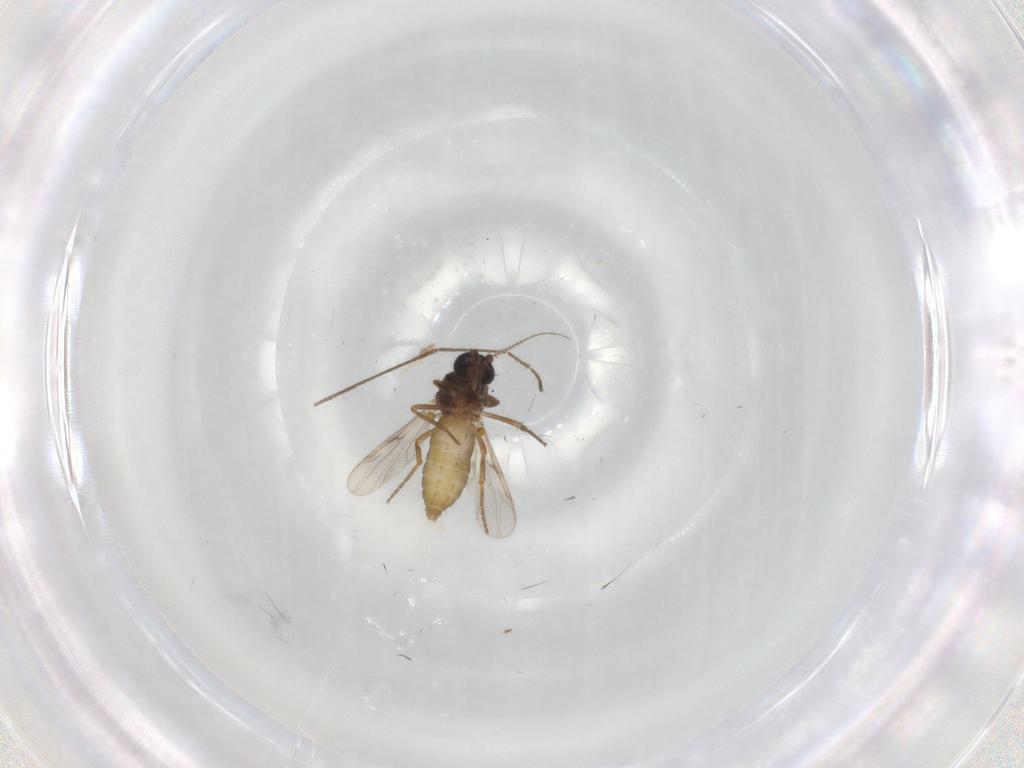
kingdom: Animalia
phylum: Arthropoda
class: Insecta
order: Diptera
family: Ceratopogonidae
